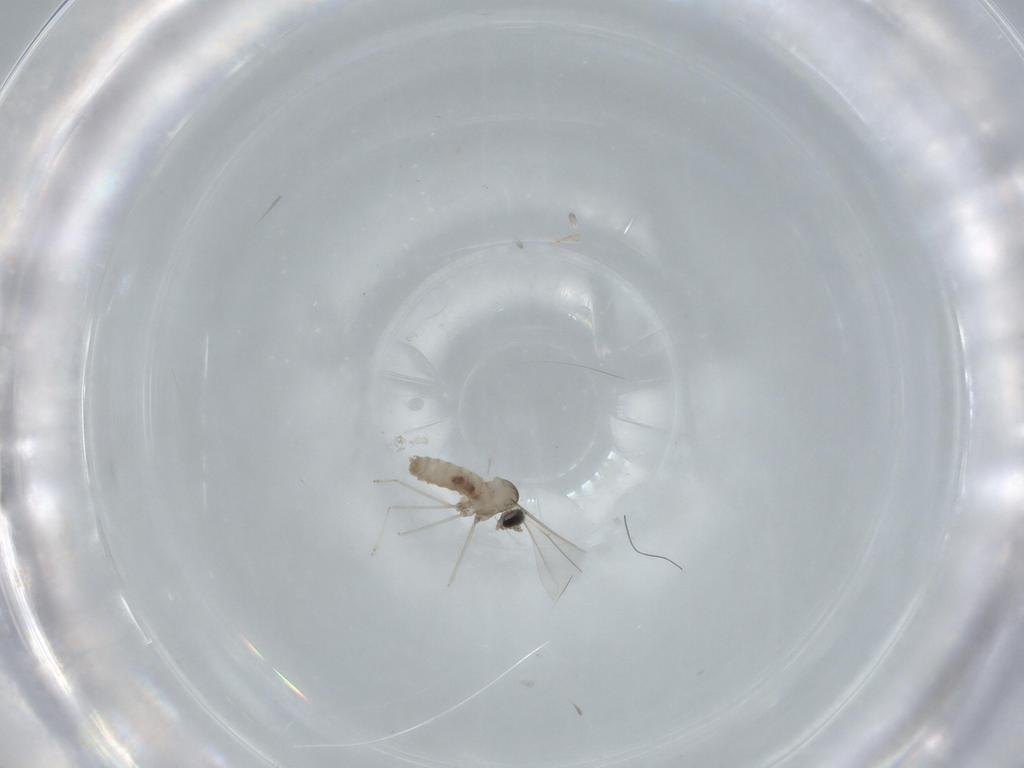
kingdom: Animalia
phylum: Arthropoda
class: Insecta
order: Diptera
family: Cecidomyiidae
